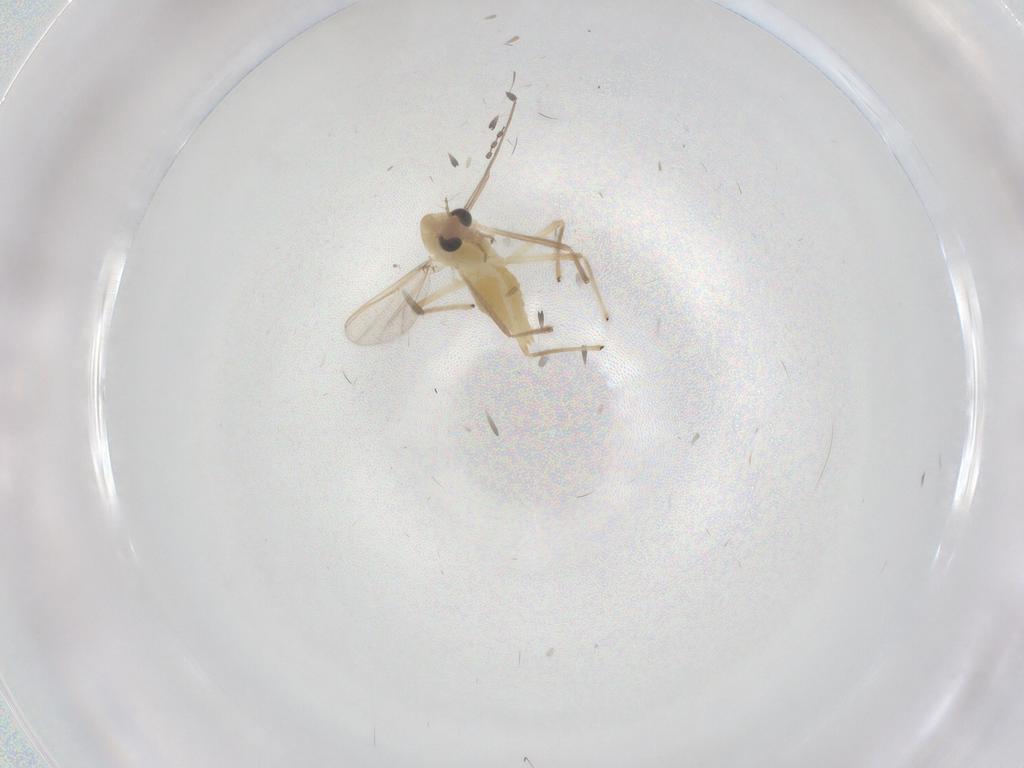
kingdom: Animalia
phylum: Arthropoda
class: Insecta
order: Diptera
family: Chironomidae
